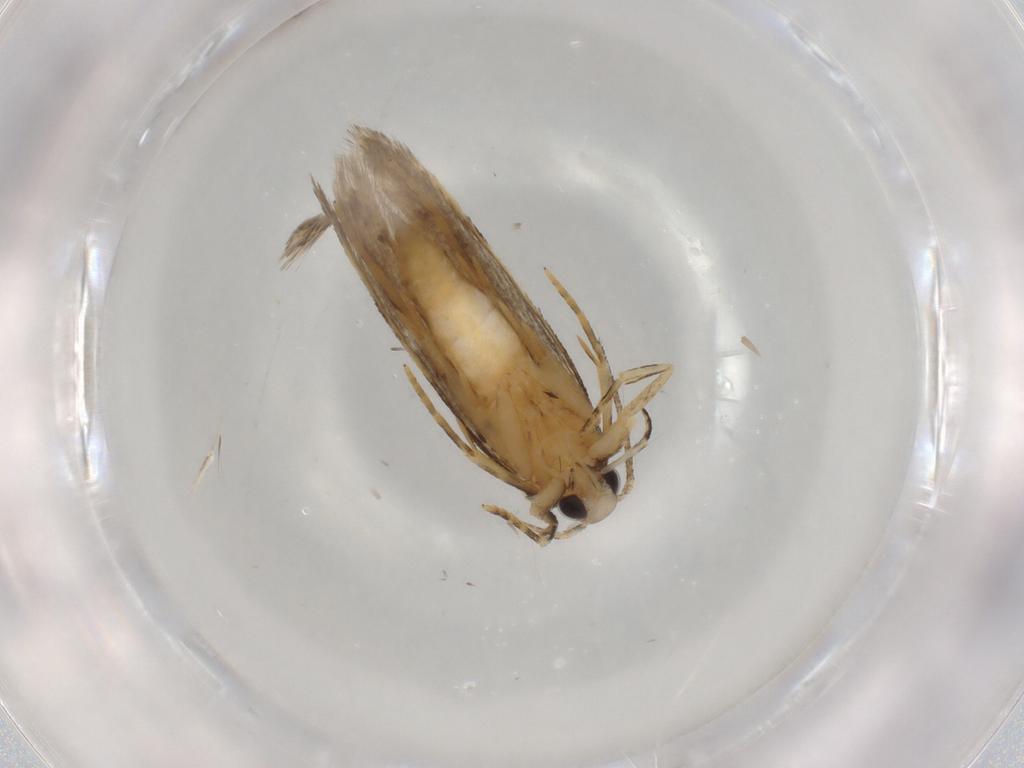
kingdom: Animalia
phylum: Arthropoda
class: Insecta
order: Lepidoptera
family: Autostichidae
